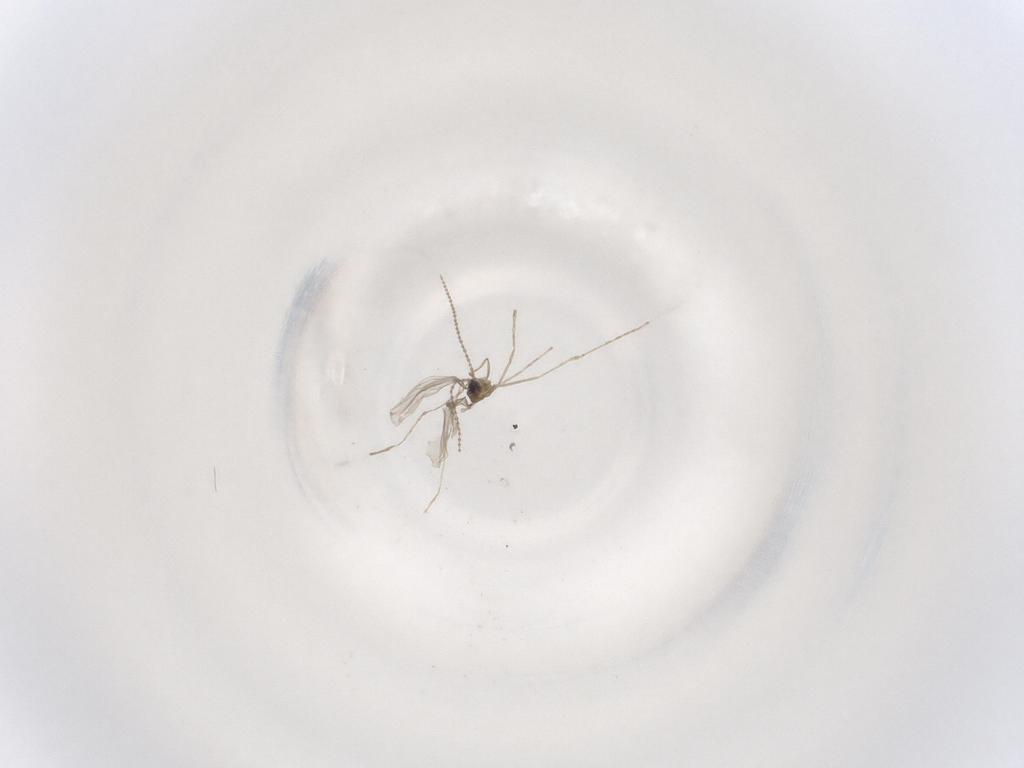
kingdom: Animalia
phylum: Arthropoda
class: Insecta
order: Diptera
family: Cecidomyiidae
